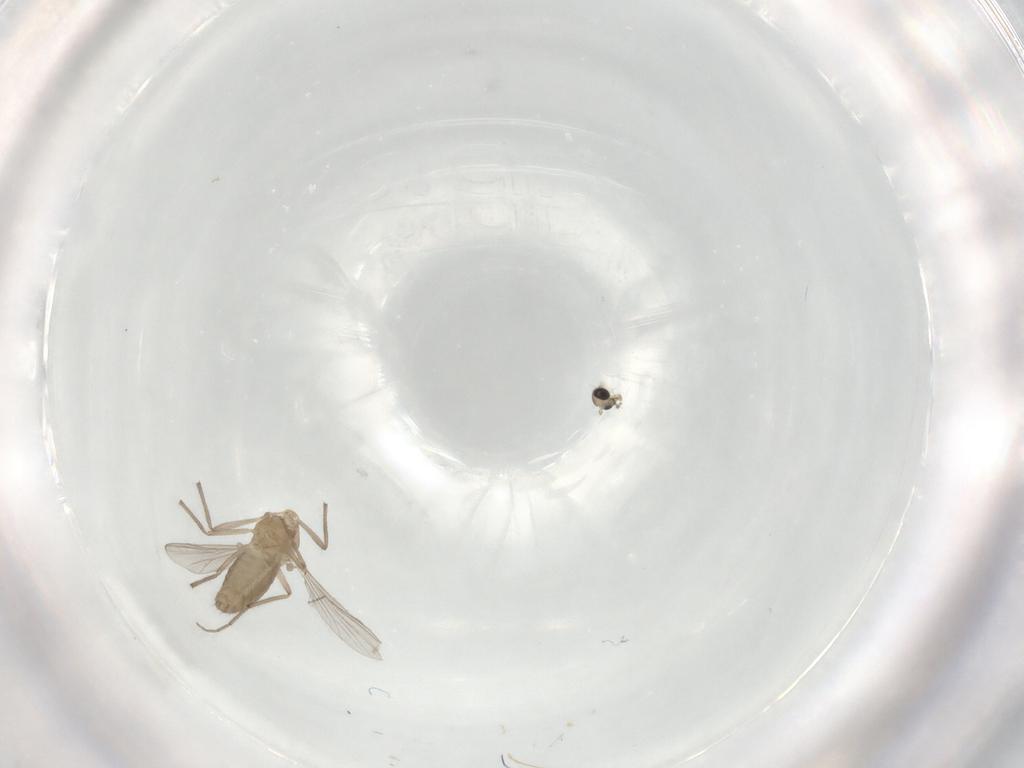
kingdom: Animalia
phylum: Arthropoda
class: Insecta
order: Diptera
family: Chironomidae
